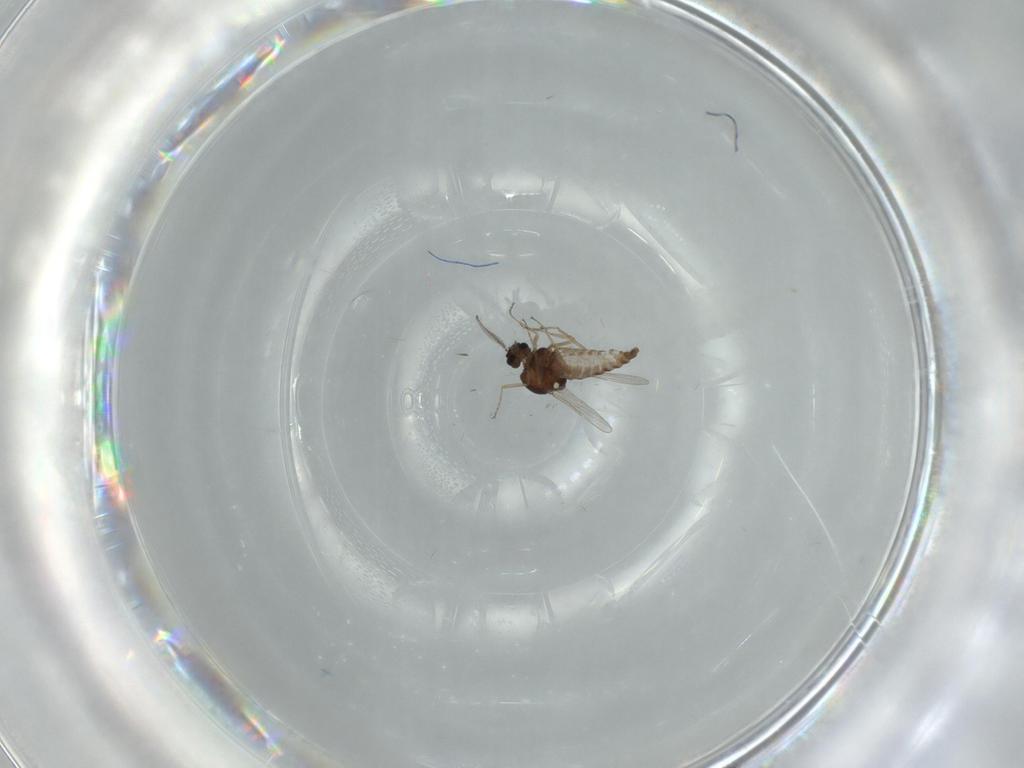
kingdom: Animalia
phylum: Arthropoda
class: Insecta
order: Diptera
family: Ceratopogonidae
